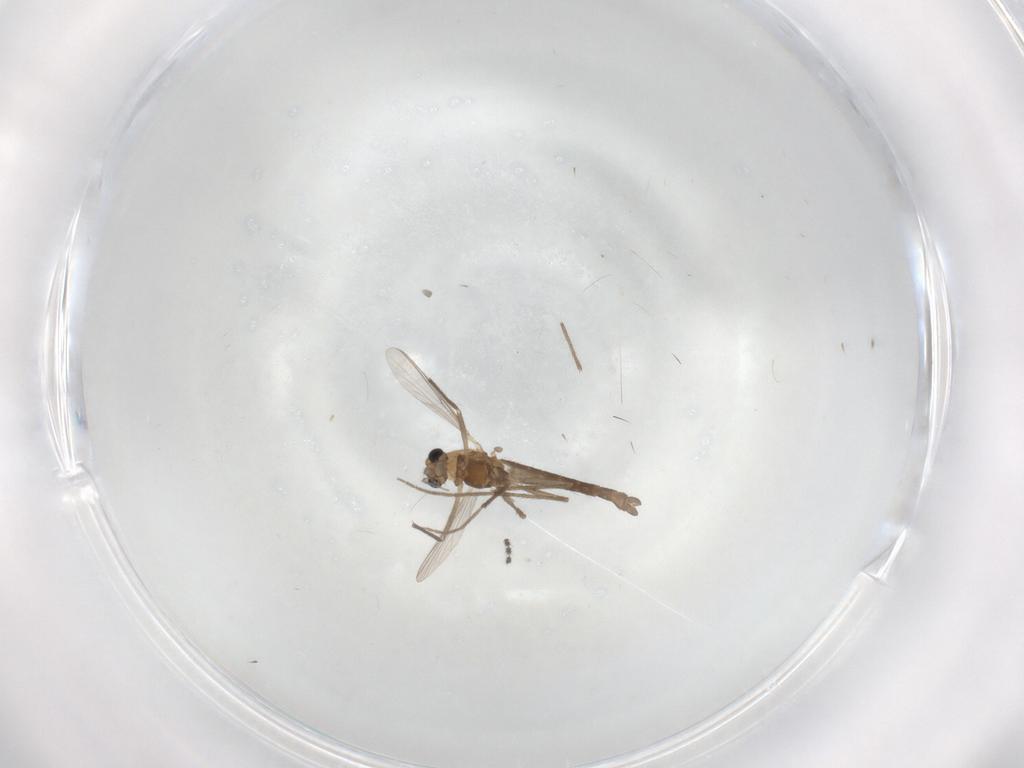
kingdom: Animalia
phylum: Arthropoda
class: Insecta
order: Diptera
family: Chironomidae
